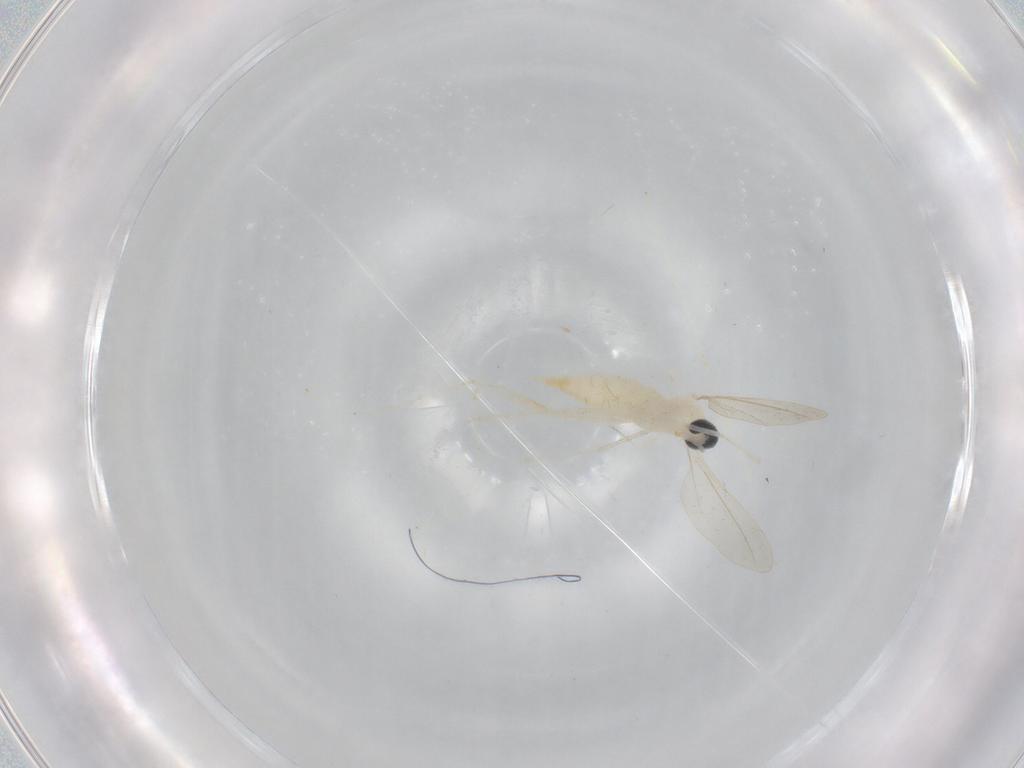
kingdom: Animalia
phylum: Arthropoda
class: Insecta
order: Diptera
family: Cecidomyiidae
